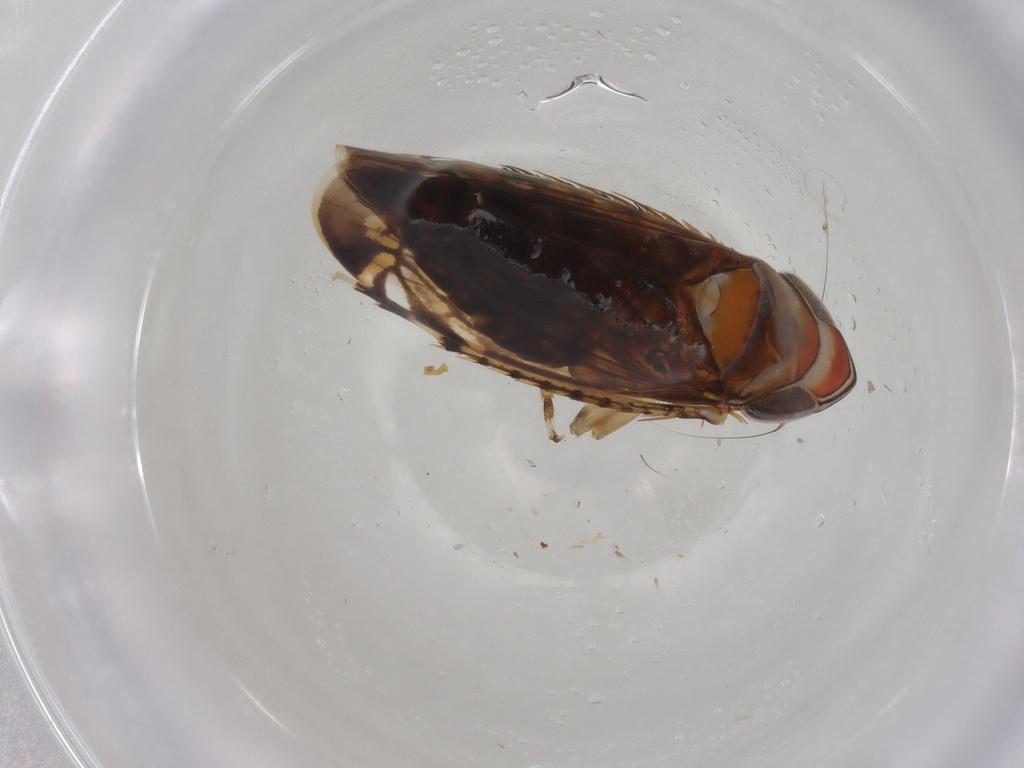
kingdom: Animalia
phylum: Arthropoda
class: Insecta
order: Hemiptera
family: Cicadellidae
